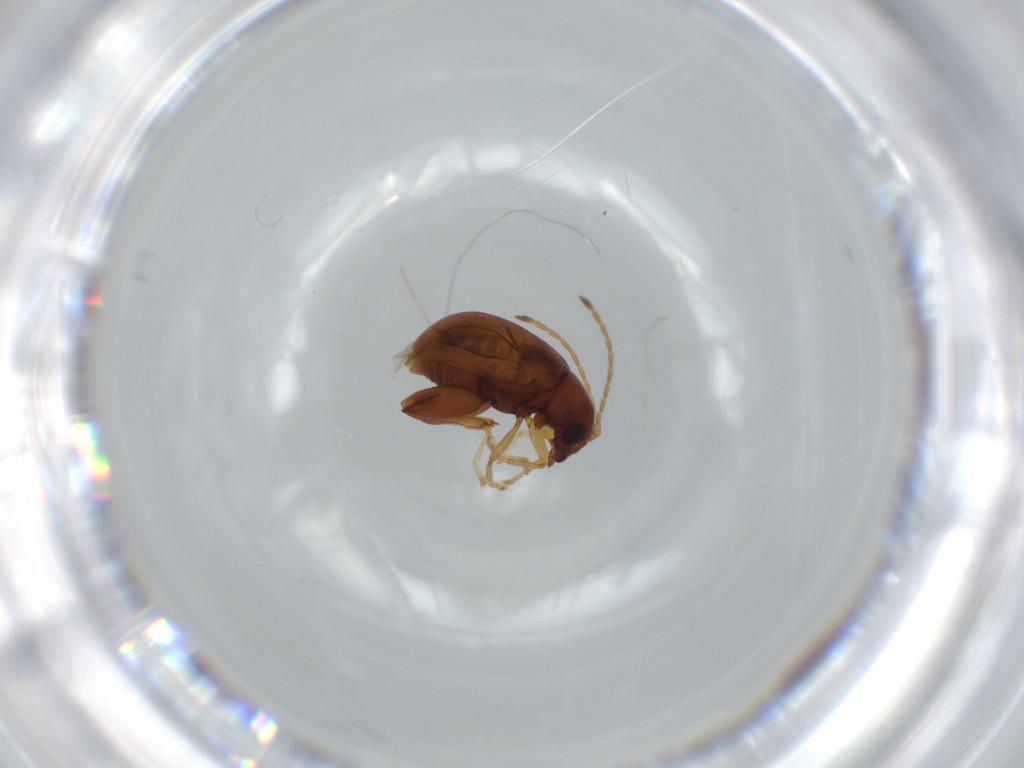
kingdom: Animalia
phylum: Arthropoda
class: Insecta
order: Coleoptera
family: Chrysomelidae
